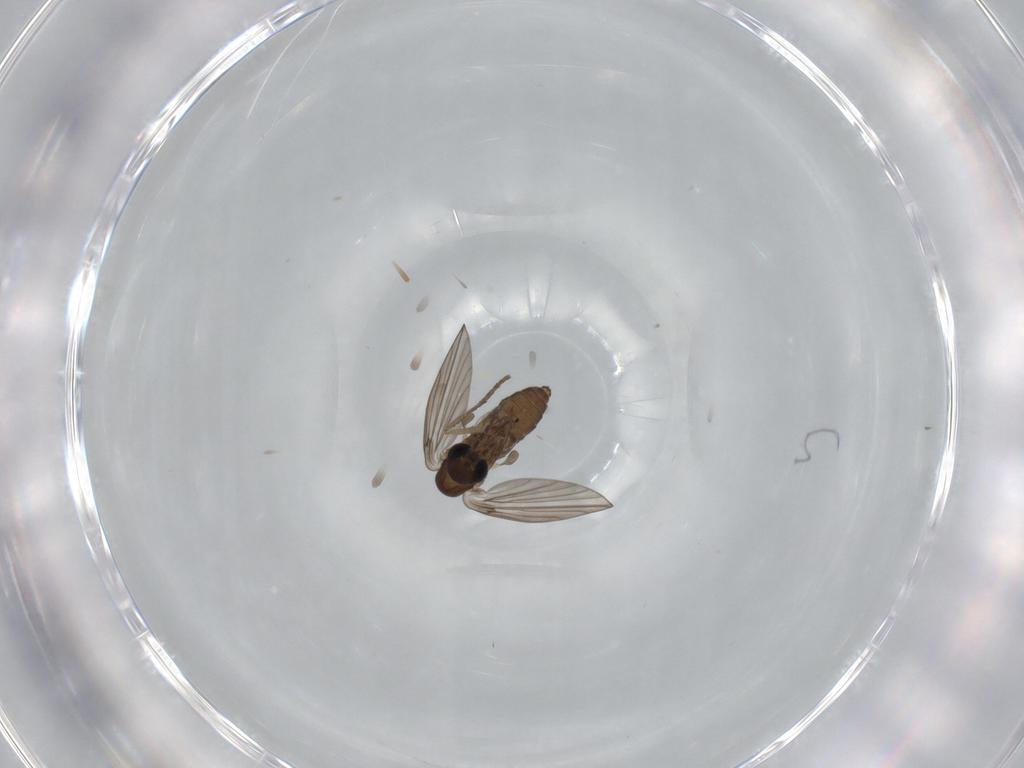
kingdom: Animalia
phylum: Arthropoda
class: Insecta
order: Diptera
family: Psychodidae
